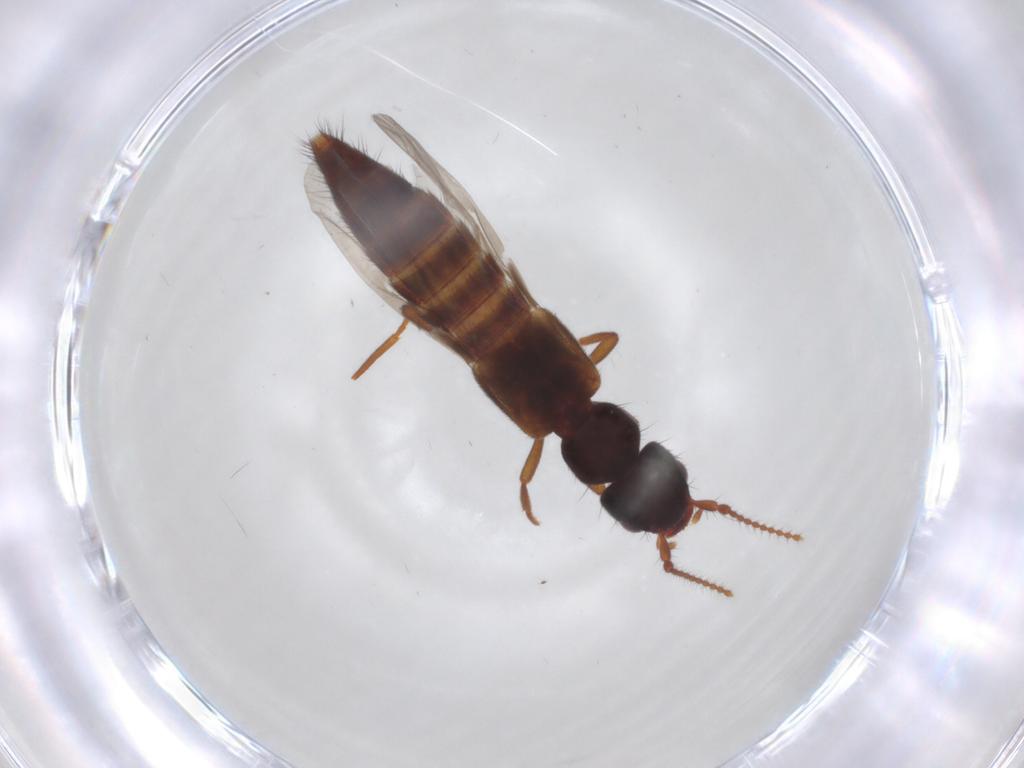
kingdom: Animalia
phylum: Arthropoda
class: Insecta
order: Coleoptera
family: Staphylinidae
